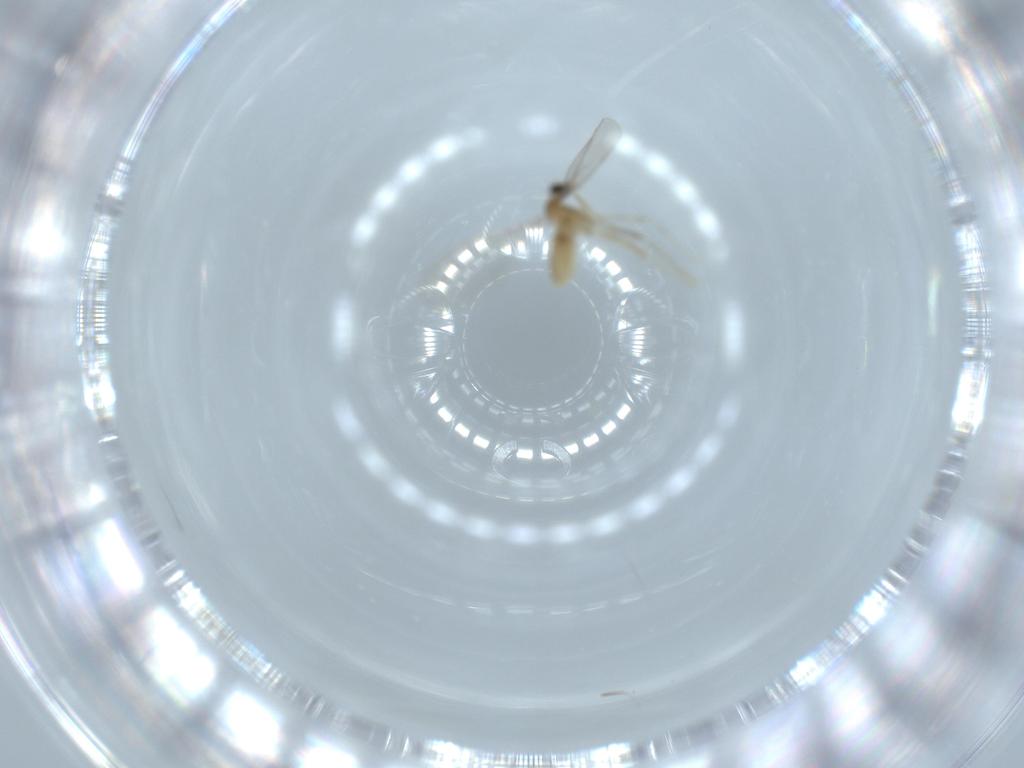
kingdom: Animalia
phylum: Arthropoda
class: Insecta
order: Diptera
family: Cecidomyiidae
